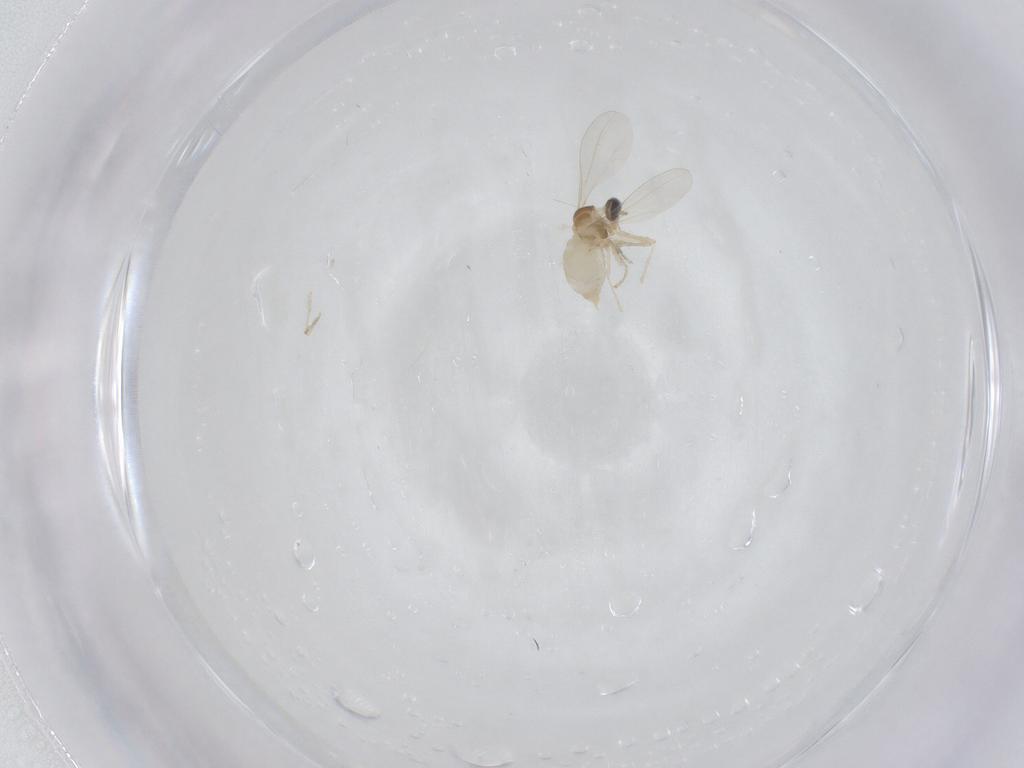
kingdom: Animalia
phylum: Arthropoda
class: Insecta
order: Diptera
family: Cecidomyiidae
